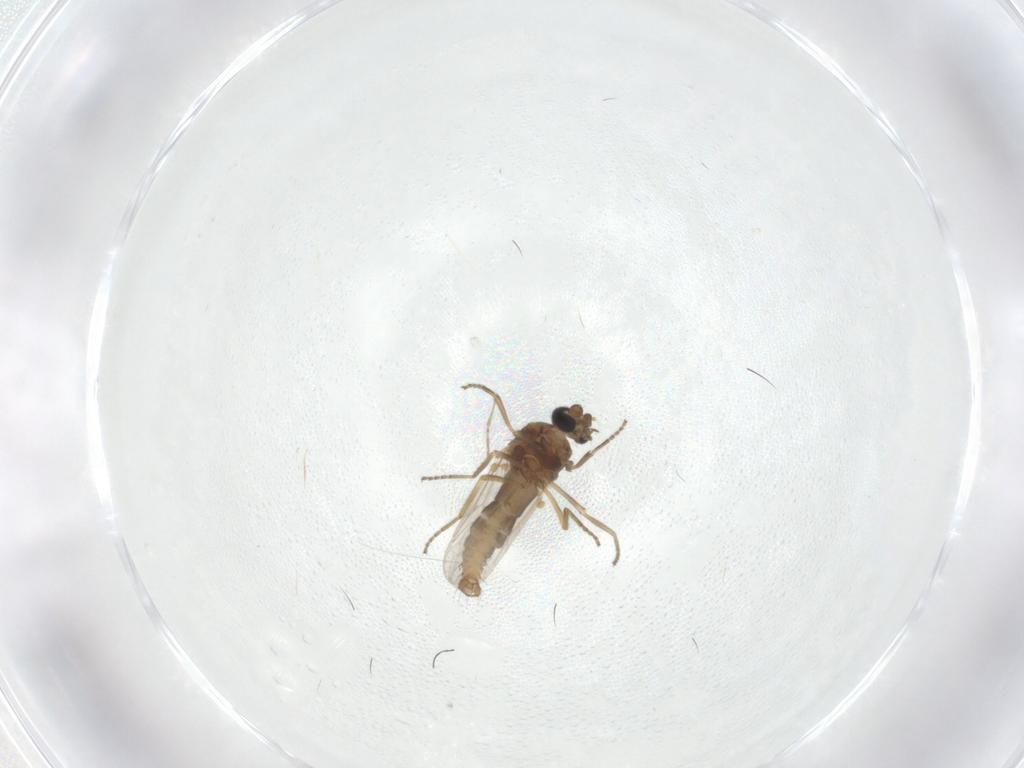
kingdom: Animalia
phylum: Arthropoda
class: Insecta
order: Diptera
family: Ceratopogonidae
